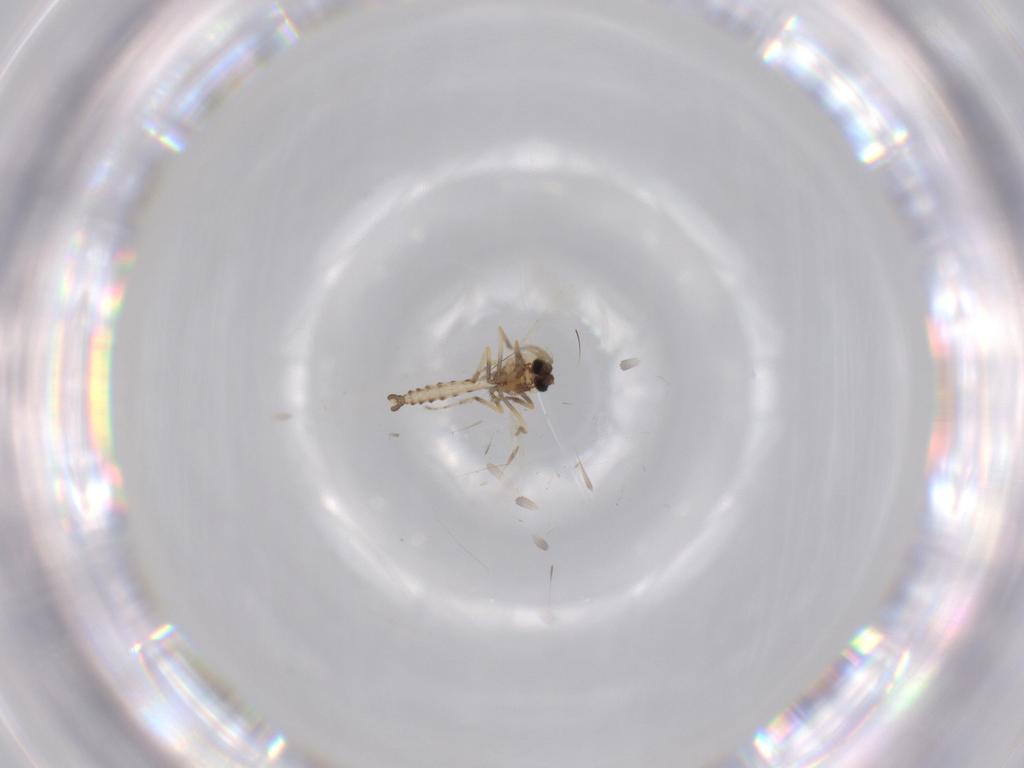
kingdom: Animalia
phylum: Arthropoda
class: Insecta
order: Diptera
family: Ceratopogonidae
